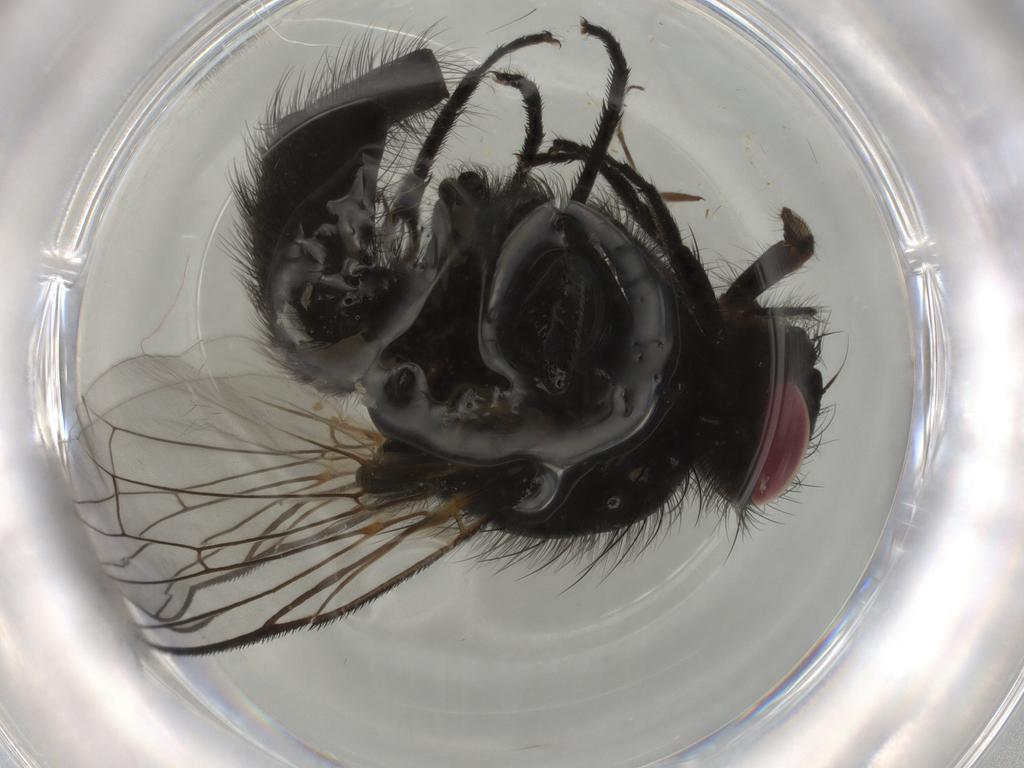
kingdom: Animalia
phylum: Arthropoda
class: Insecta
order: Diptera
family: Muscidae
